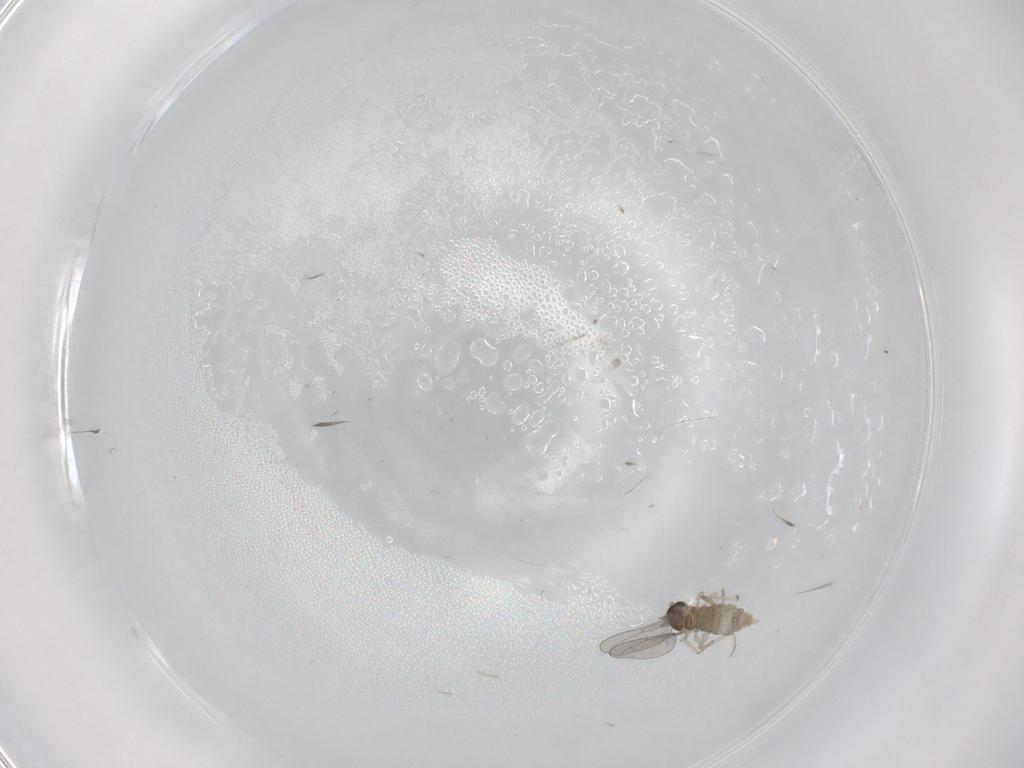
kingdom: Animalia
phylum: Arthropoda
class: Insecta
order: Diptera
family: Cecidomyiidae
